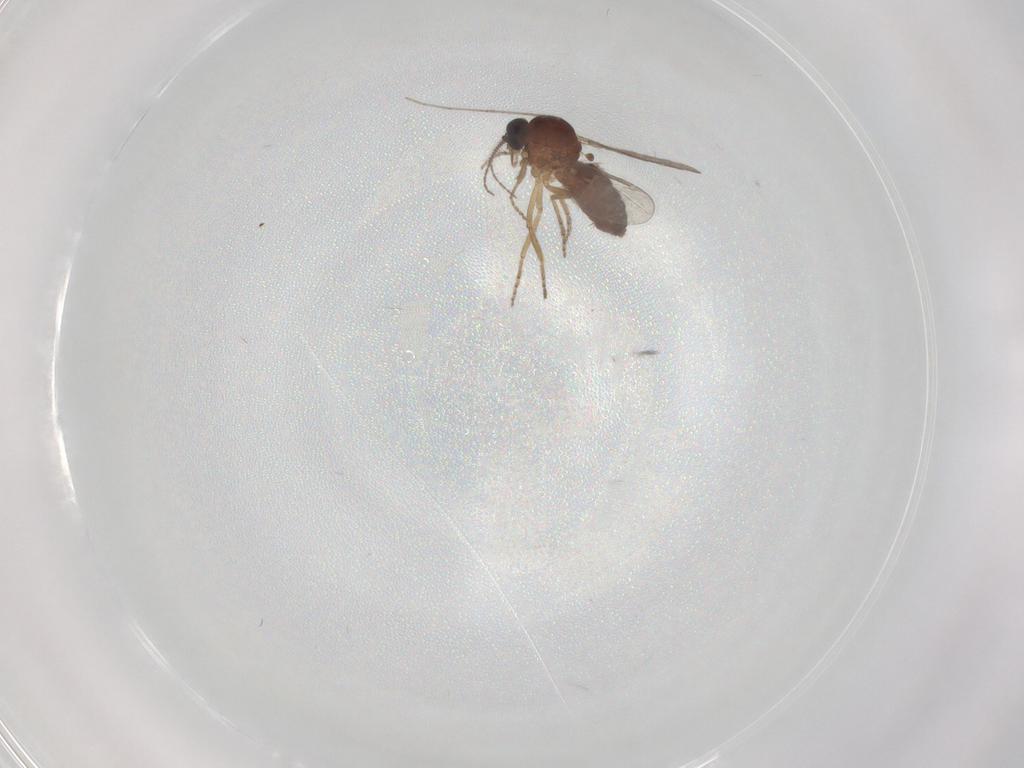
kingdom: Animalia
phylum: Arthropoda
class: Insecta
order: Diptera
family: Ceratopogonidae
